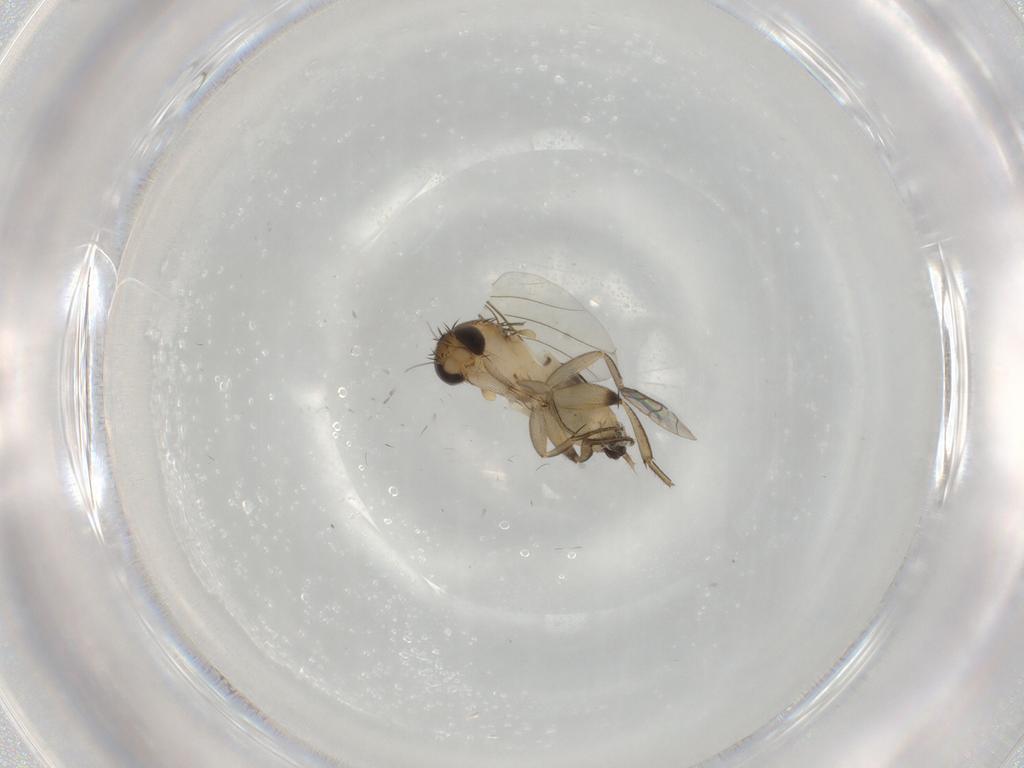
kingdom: Animalia
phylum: Arthropoda
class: Insecta
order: Diptera
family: Phoridae
